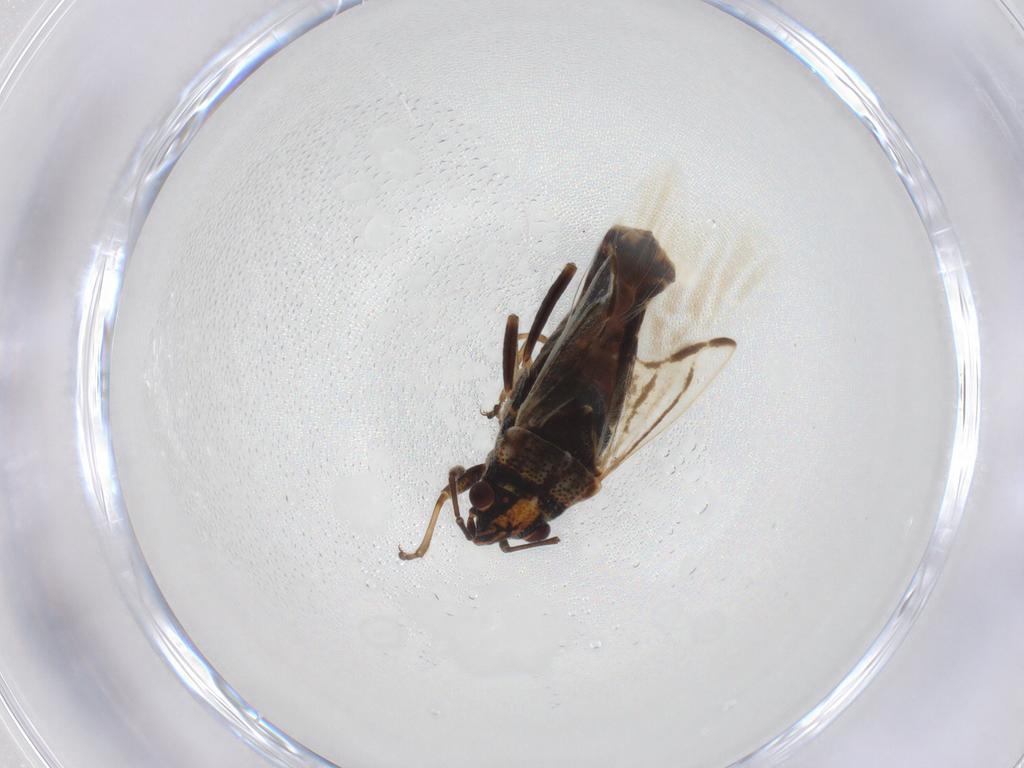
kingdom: Animalia
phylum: Arthropoda
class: Insecta
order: Hemiptera
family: Lygaeidae
